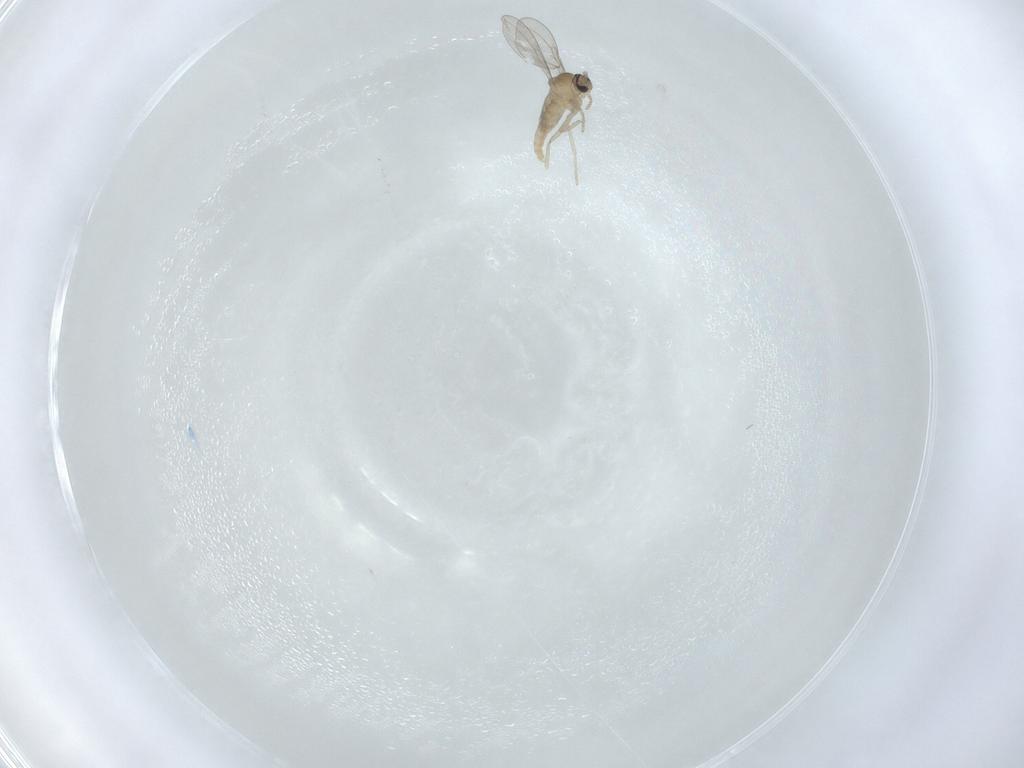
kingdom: Animalia
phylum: Arthropoda
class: Insecta
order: Diptera
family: Cecidomyiidae
